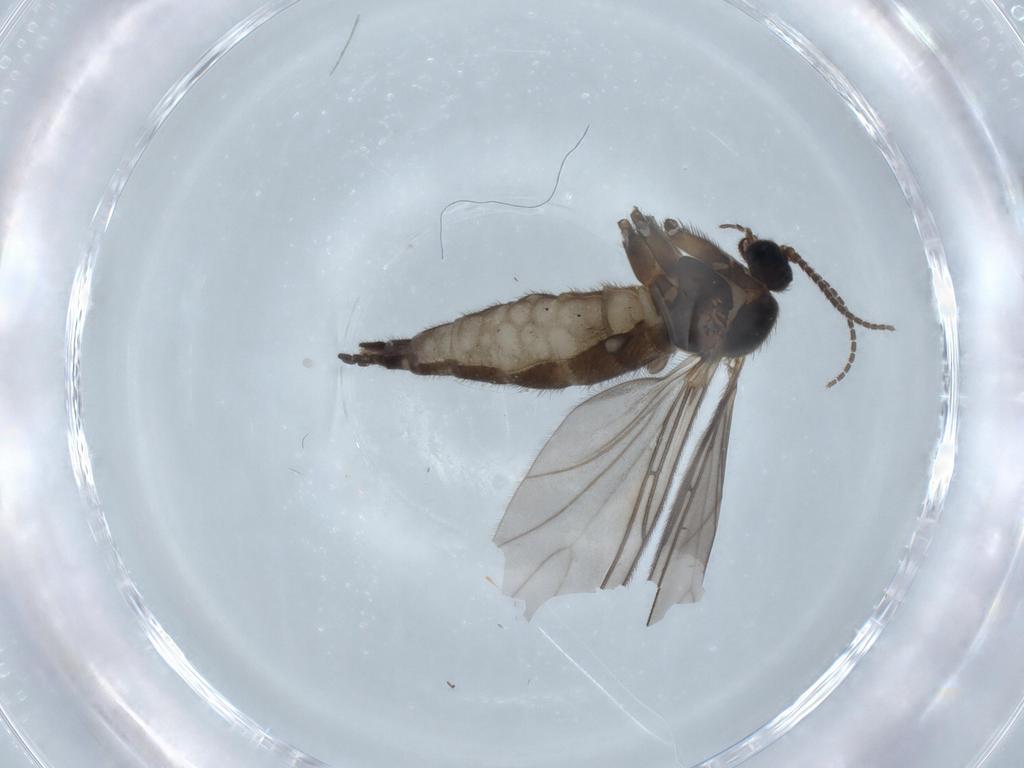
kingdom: Animalia
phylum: Arthropoda
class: Insecta
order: Diptera
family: Sciaridae
